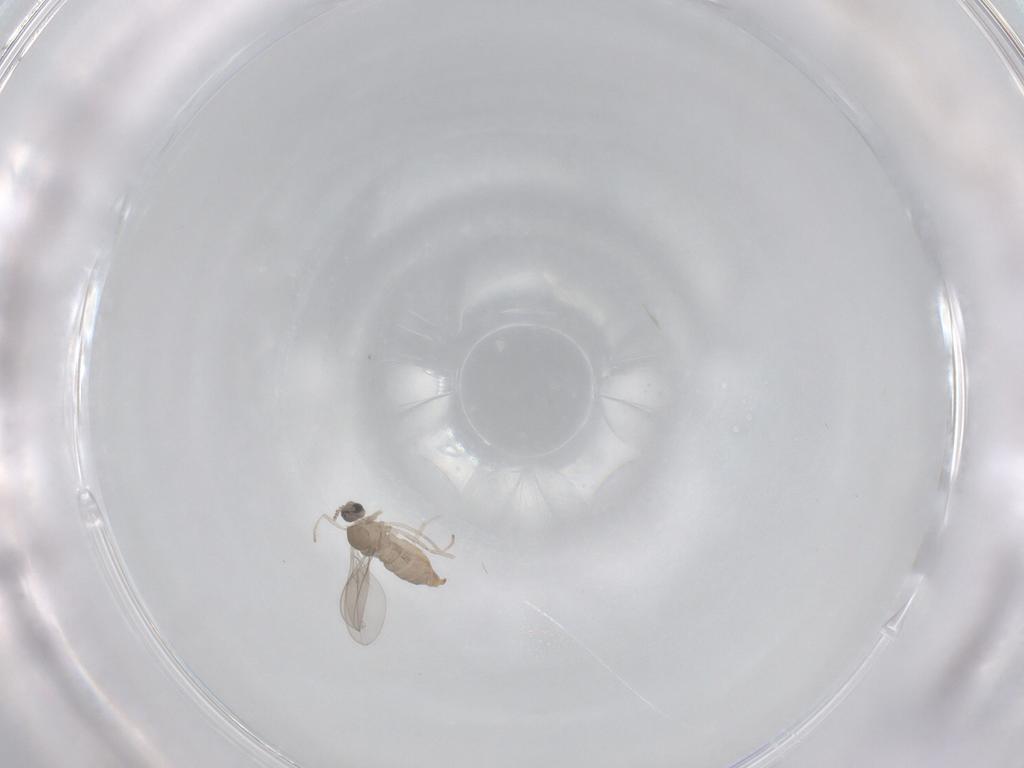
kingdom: Animalia
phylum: Arthropoda
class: Insecta
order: Diptera
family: Cecidomyiidae
